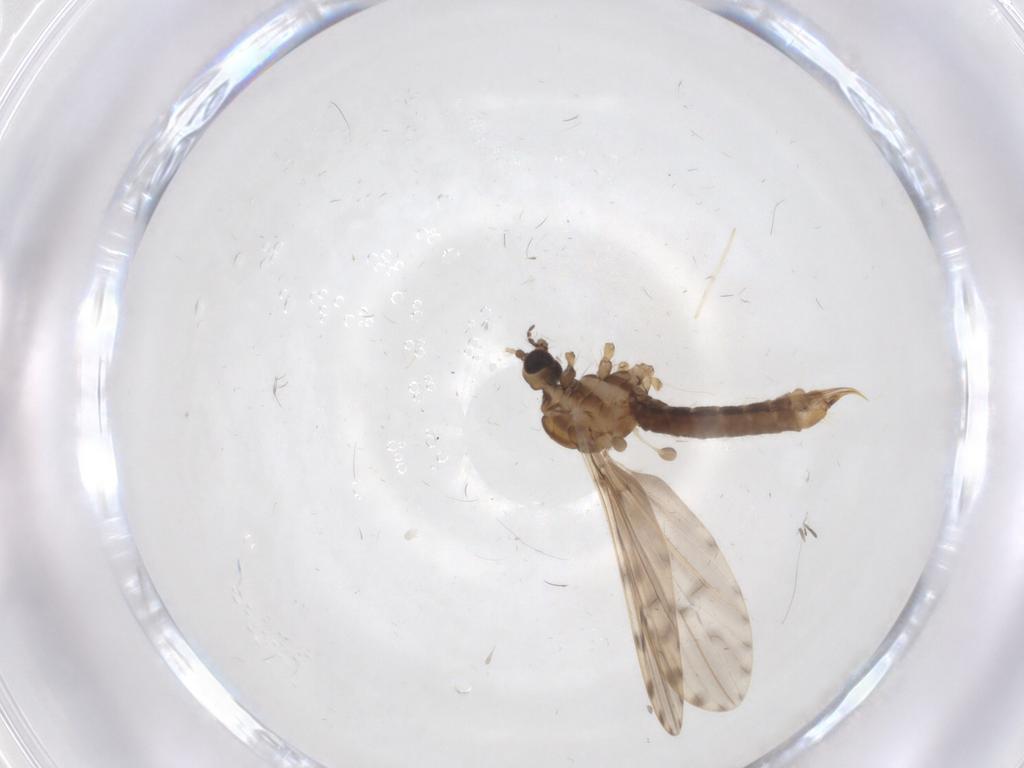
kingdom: Animalia
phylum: Arthropoda
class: Insecta
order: Diptera
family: Limoniidae
